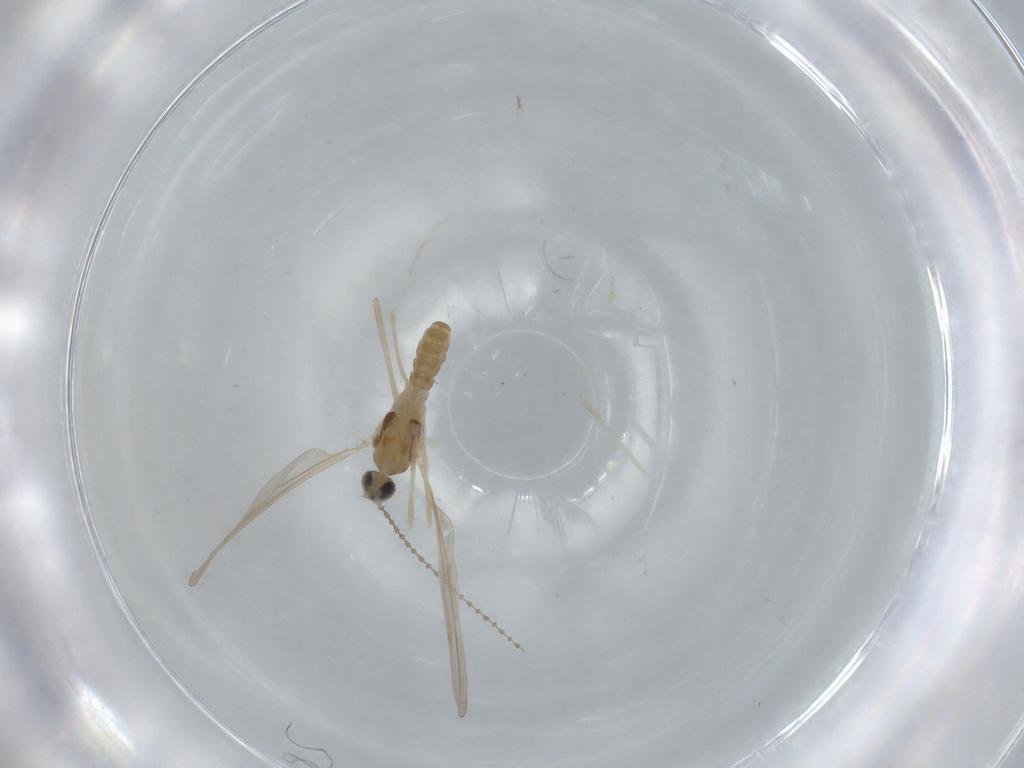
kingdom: Animalia
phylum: Arthropoda
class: Insecta
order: Diptera
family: Cecidomyiidae
